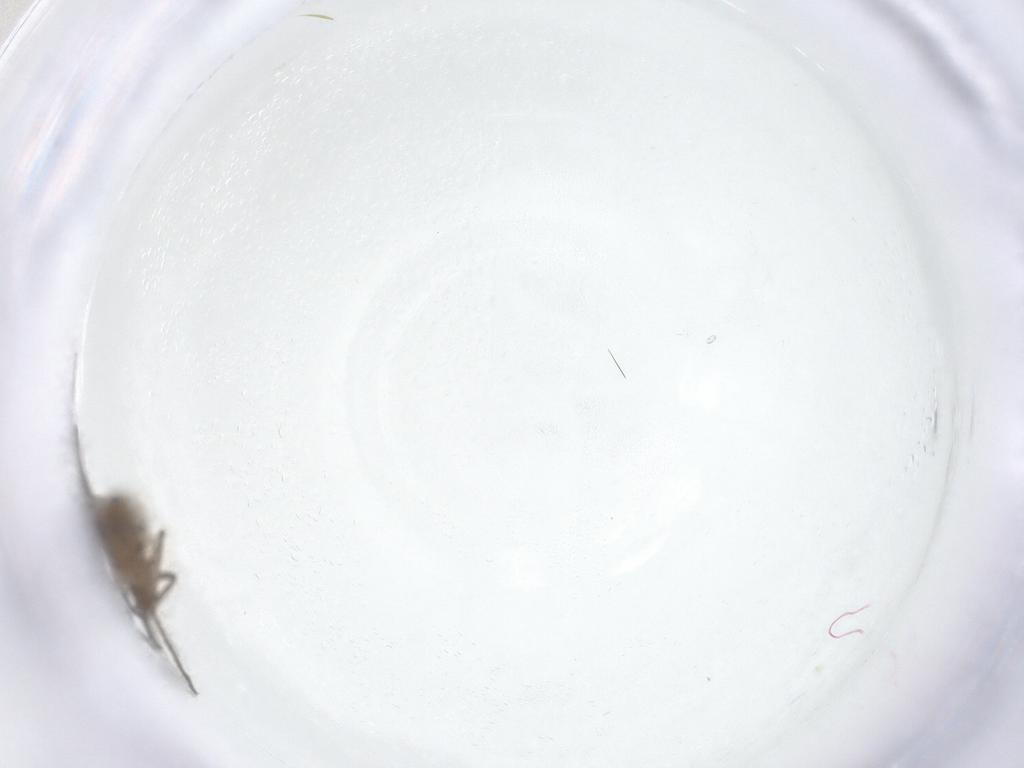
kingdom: Animalia
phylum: Arthropoda
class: Insecta
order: Diptera
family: Chironomidae
